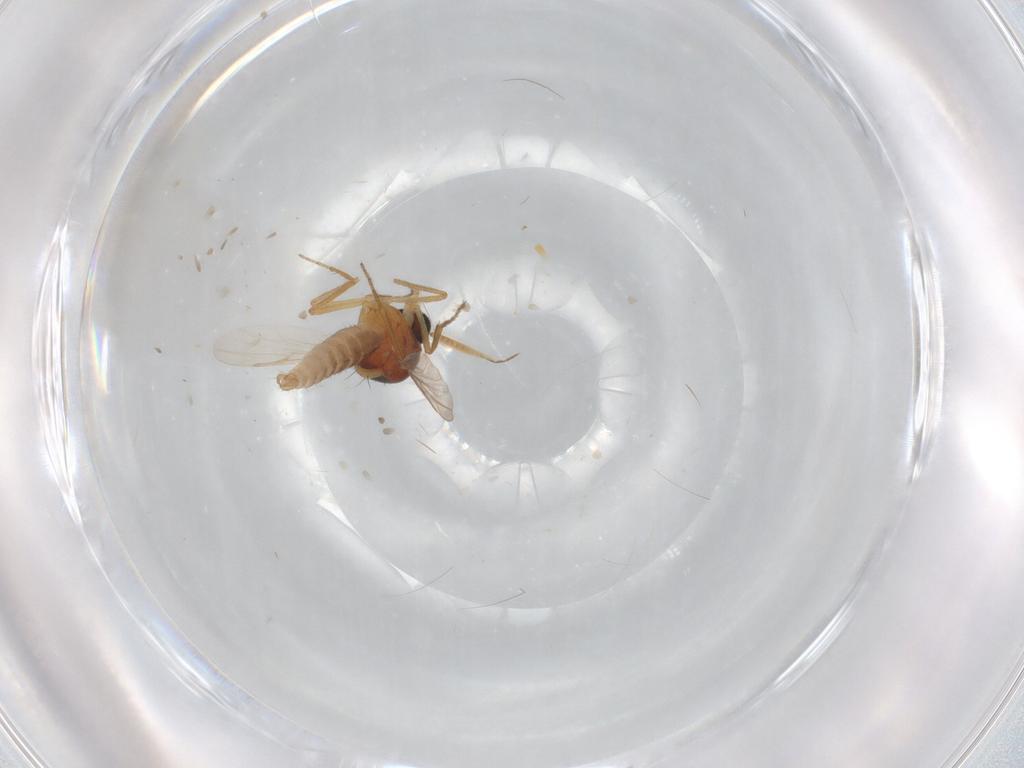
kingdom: Animalia
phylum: Arthropoda
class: Insecta
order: Diptera
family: Ceratopogonidae
